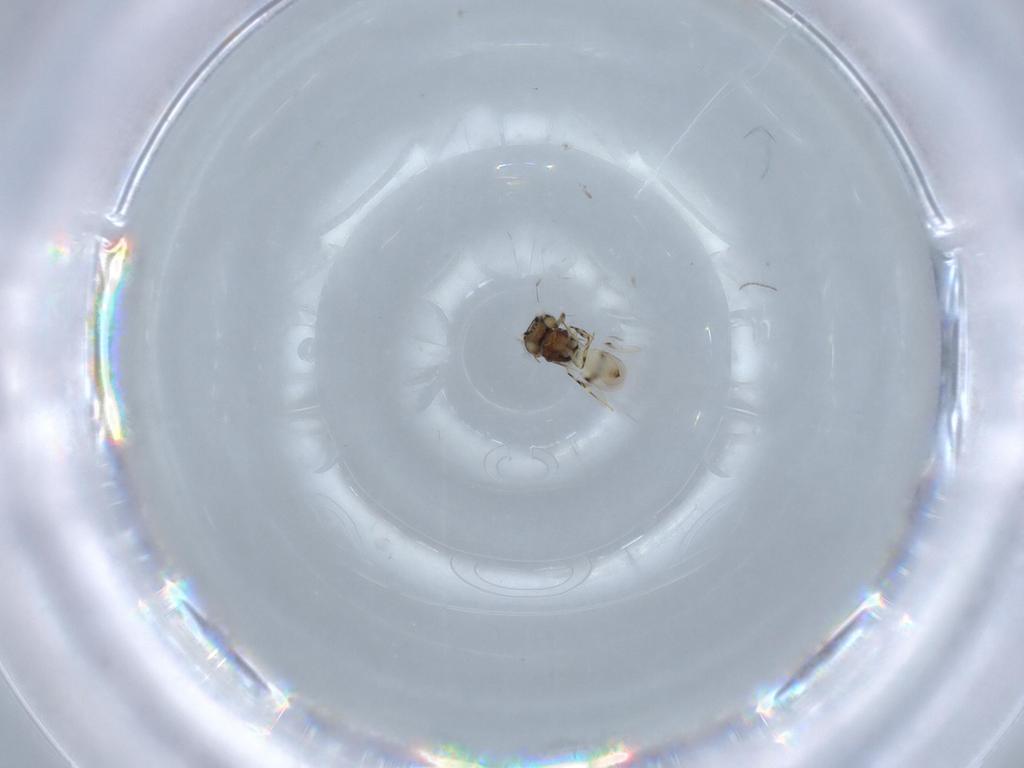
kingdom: Animalia
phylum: Arthropoda
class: Insecta
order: Hymenoptera
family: Scelionidae
